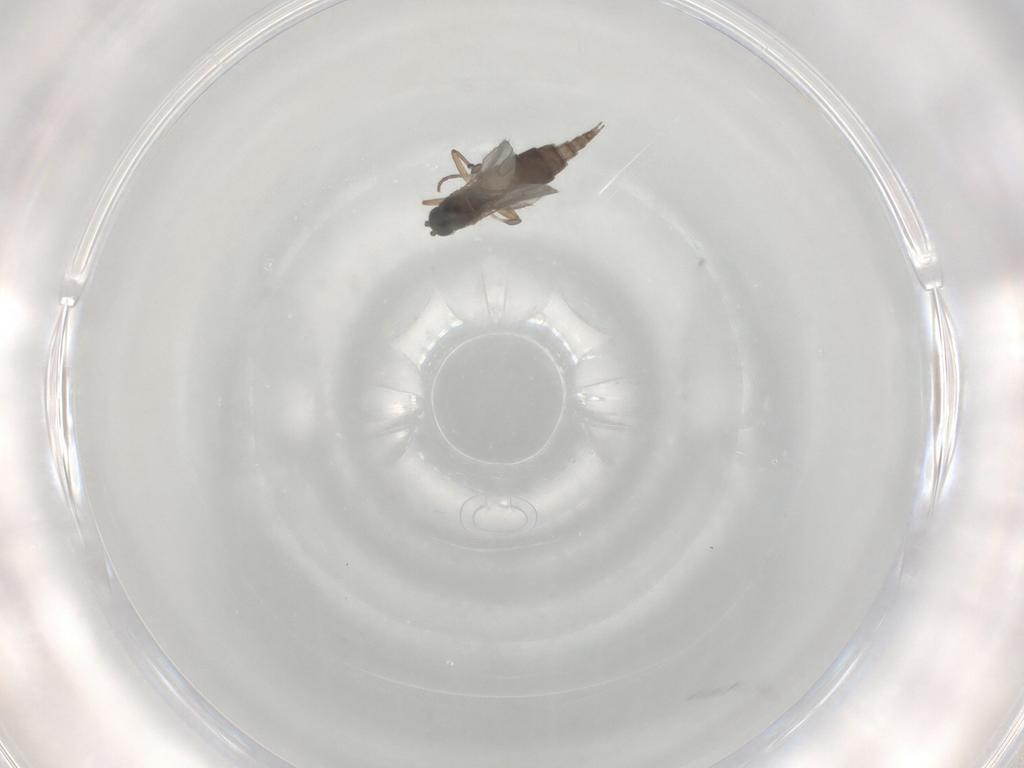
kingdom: Animalia
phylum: Arthropoda
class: Insecta
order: Diptera
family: Sciaridae
